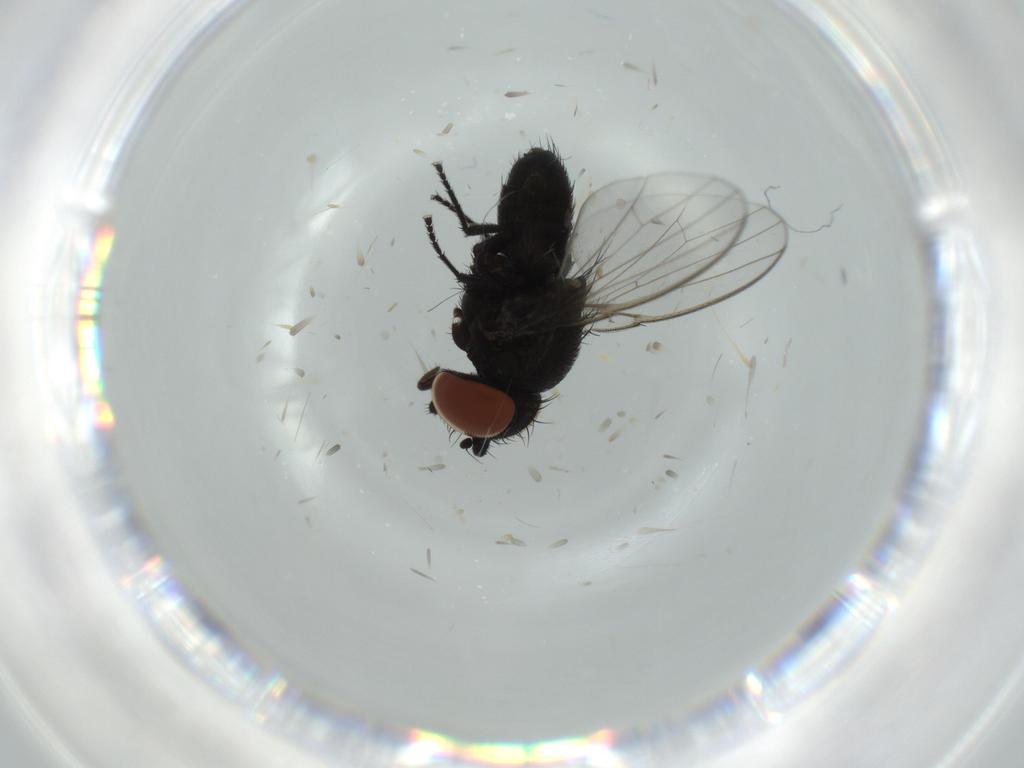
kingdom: Animalia
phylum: Arthropoda
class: Insecta
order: Diptera
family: Milichiidae
